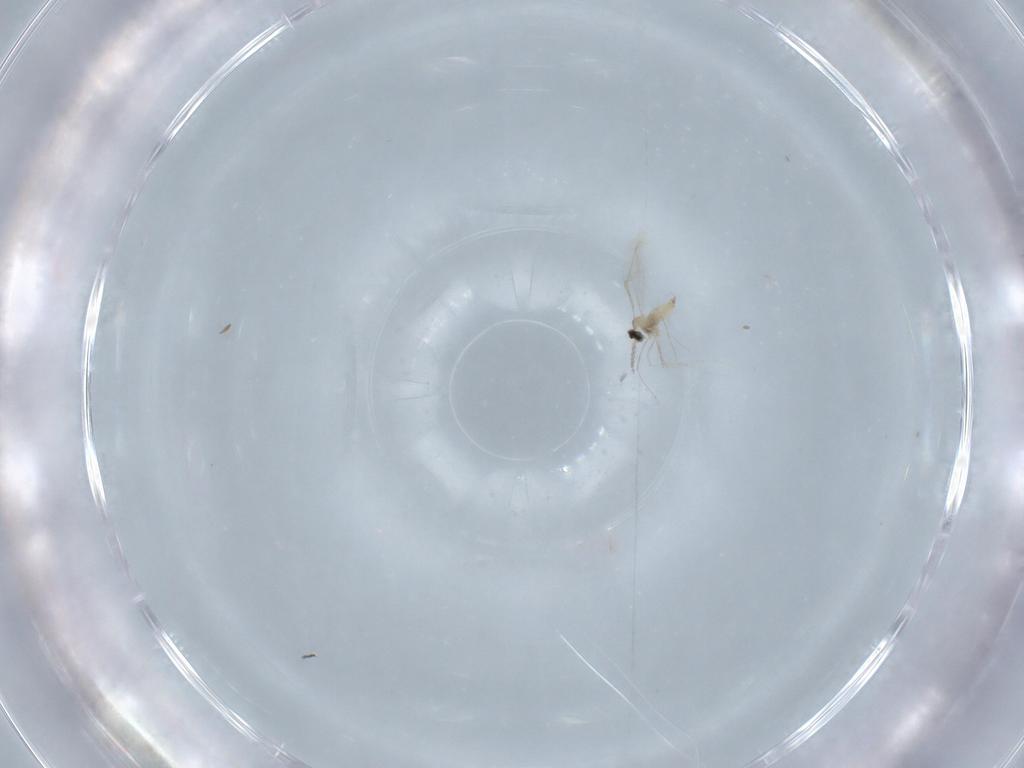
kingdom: Animalia
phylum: Arthropoda
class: Insecta
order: Diptera
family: Cecidomyiidae
